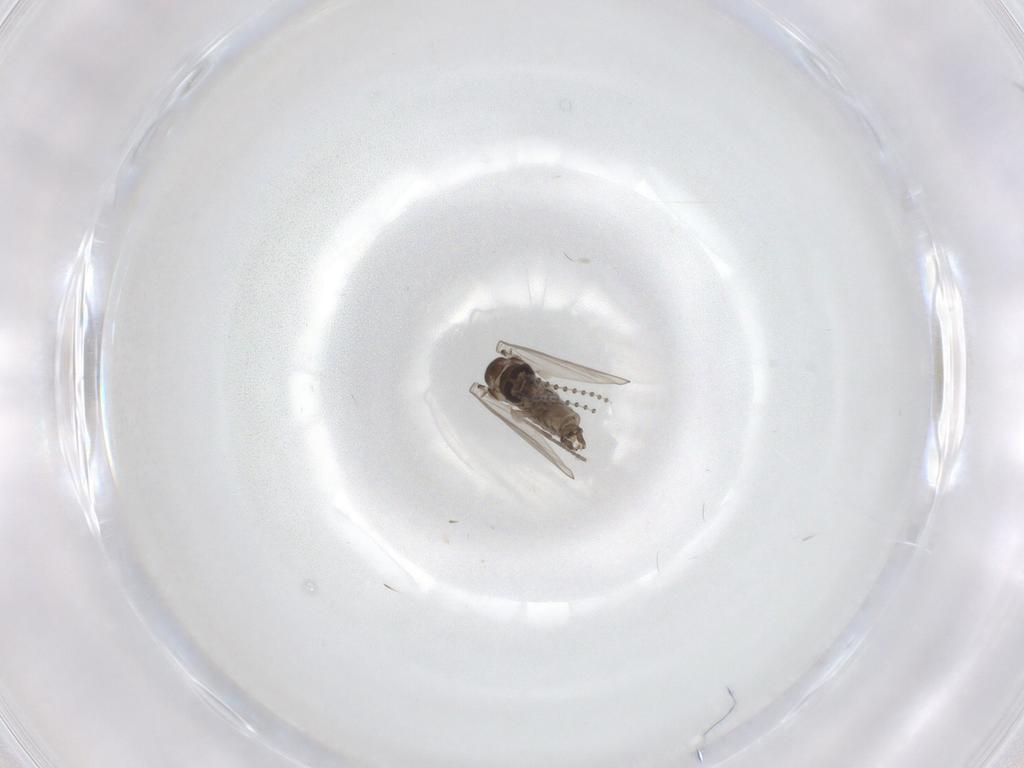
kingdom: Animalia
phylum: Arthropoda
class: Insecta
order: Diptera
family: Psychodidae
